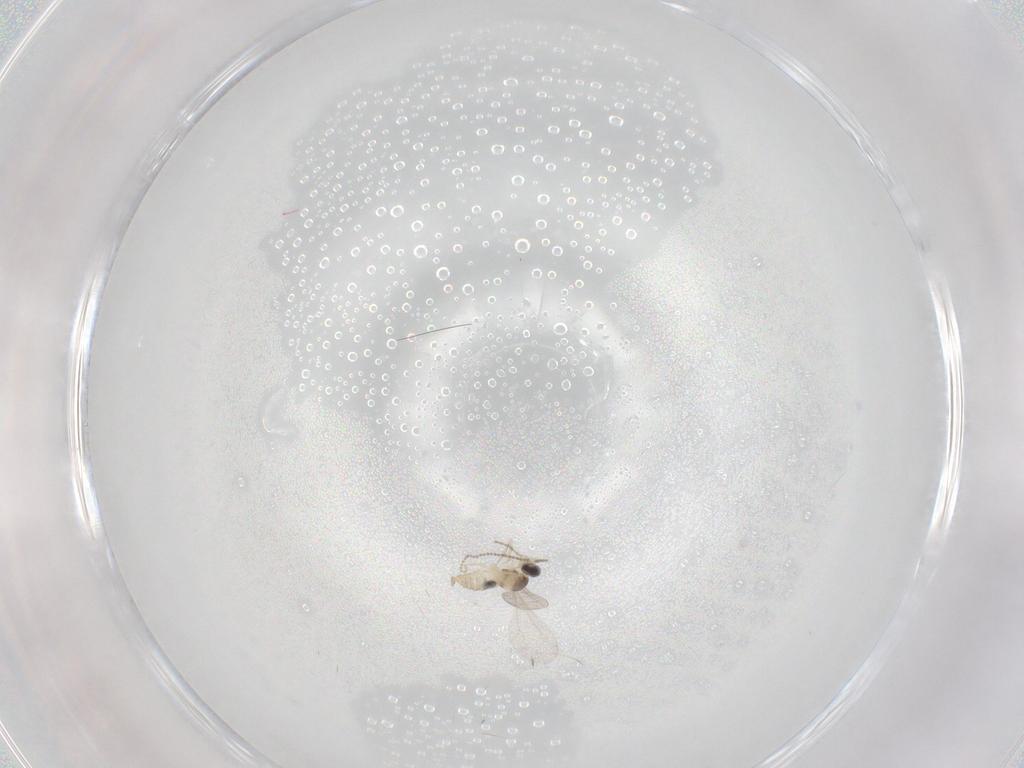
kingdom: Animalia
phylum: Arthropoda
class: Insecta
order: Diptera
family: Cecidomyiidae
